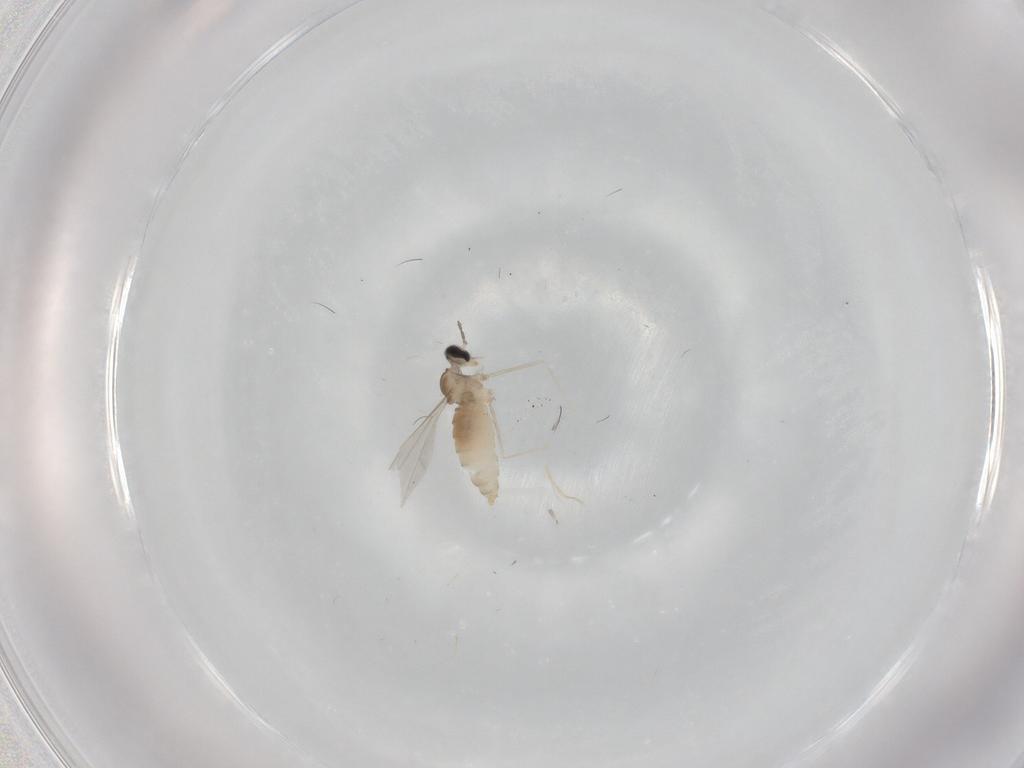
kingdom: Animalia
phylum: Arthropoda
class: Insecta
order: Diptera
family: Cecidomyiidae
